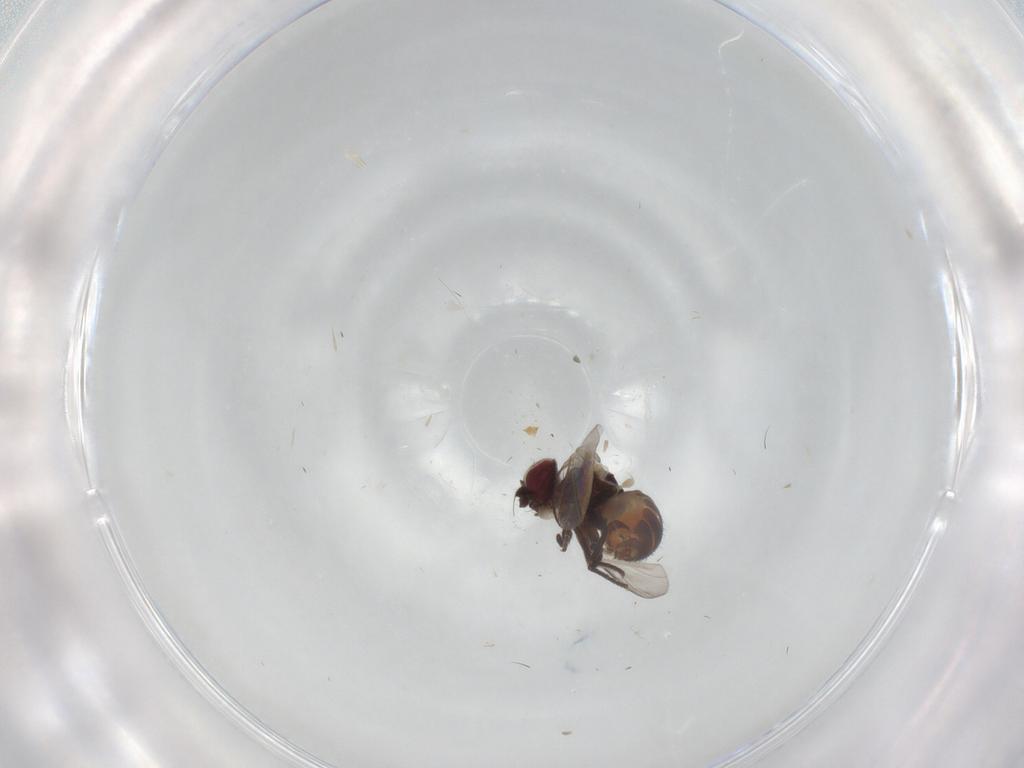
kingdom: Animalia
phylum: Arthropoda
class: Insecta
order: Diptera
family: Agromyzidae
